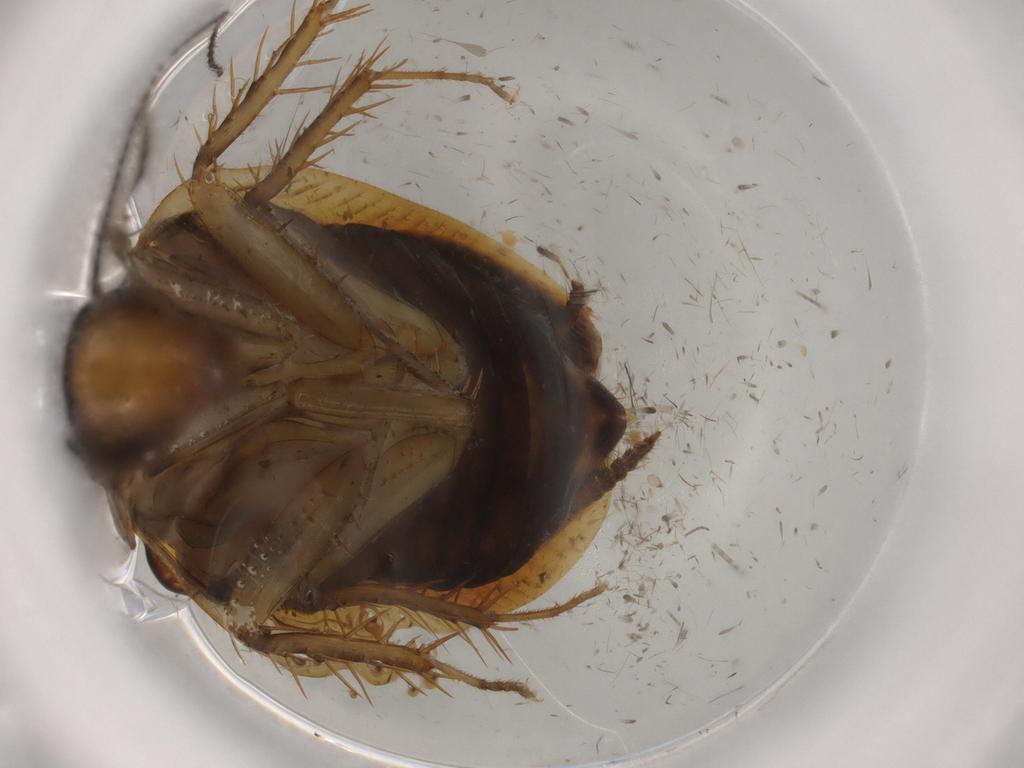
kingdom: Animalia
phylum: Arthropoda
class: Insecta
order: Blattodea
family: Ectobiidae
